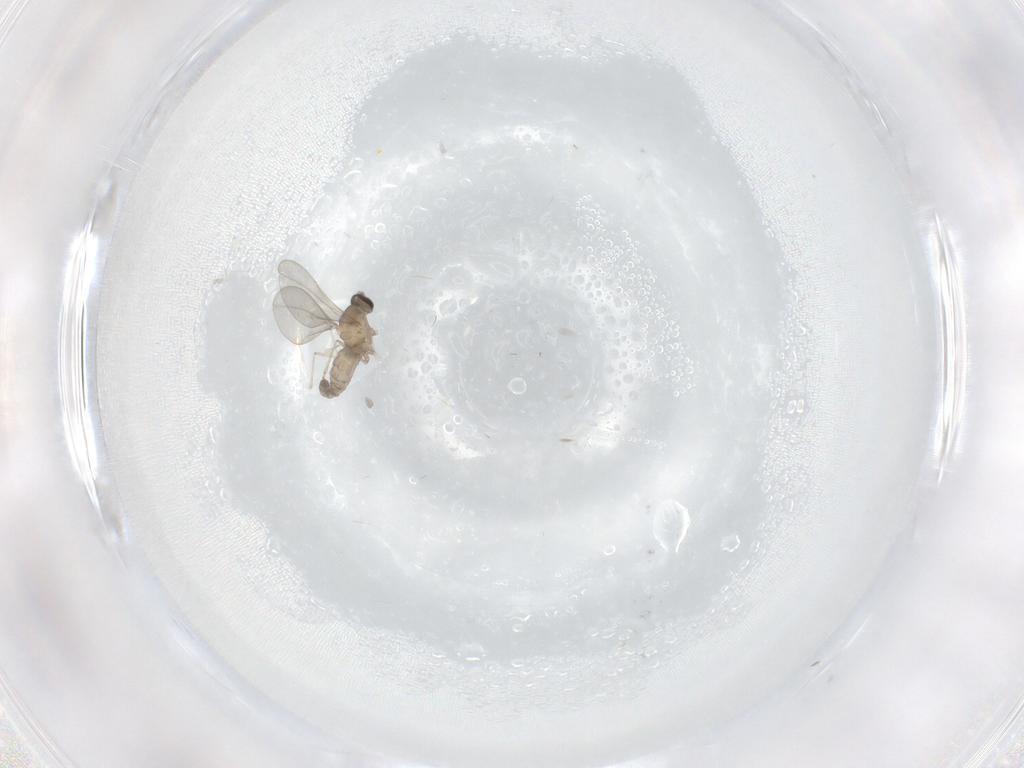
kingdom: Animalia
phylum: Arthropoda
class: Insecta
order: Diptera
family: Cecidomyiidae
